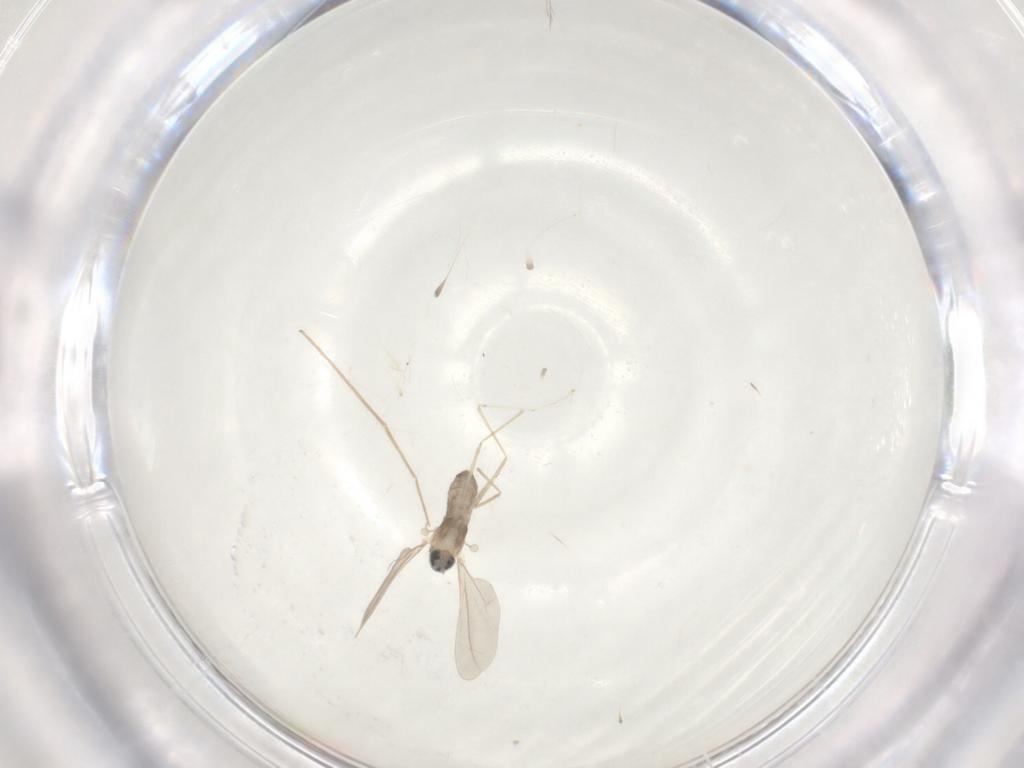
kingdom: Animalia
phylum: Arthropoda
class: Insecta
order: Diptera
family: Cecidomyiidae
